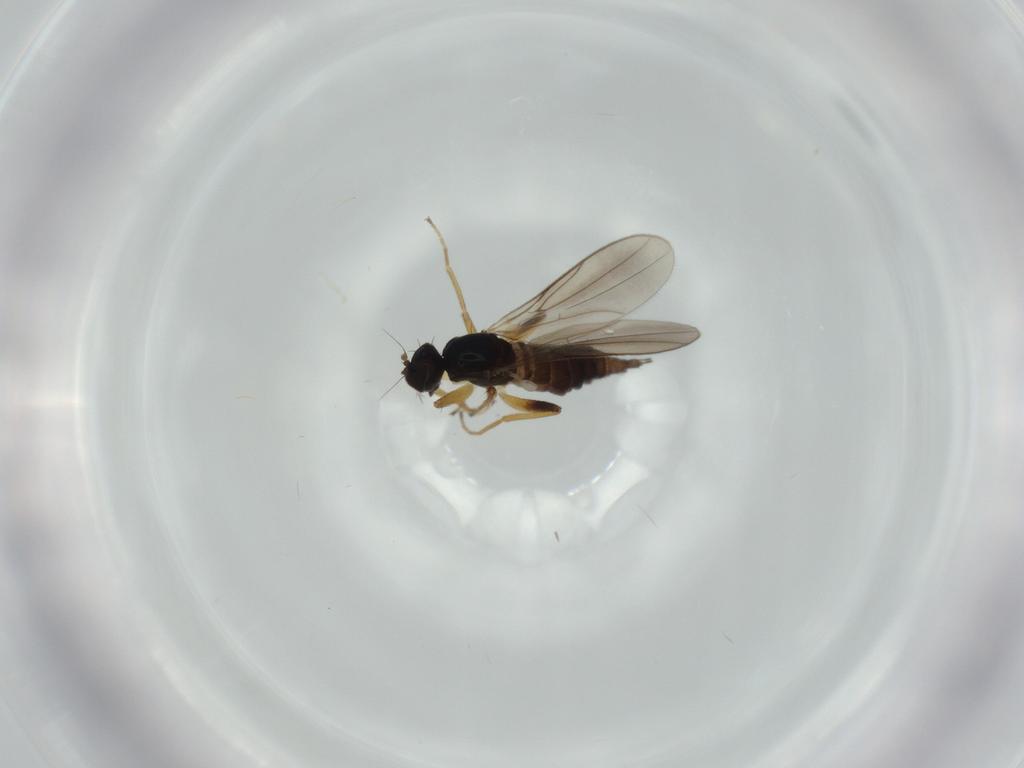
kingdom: Animalia
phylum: Arthropoda
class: Insecta
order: Diptera
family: Hybotidae
